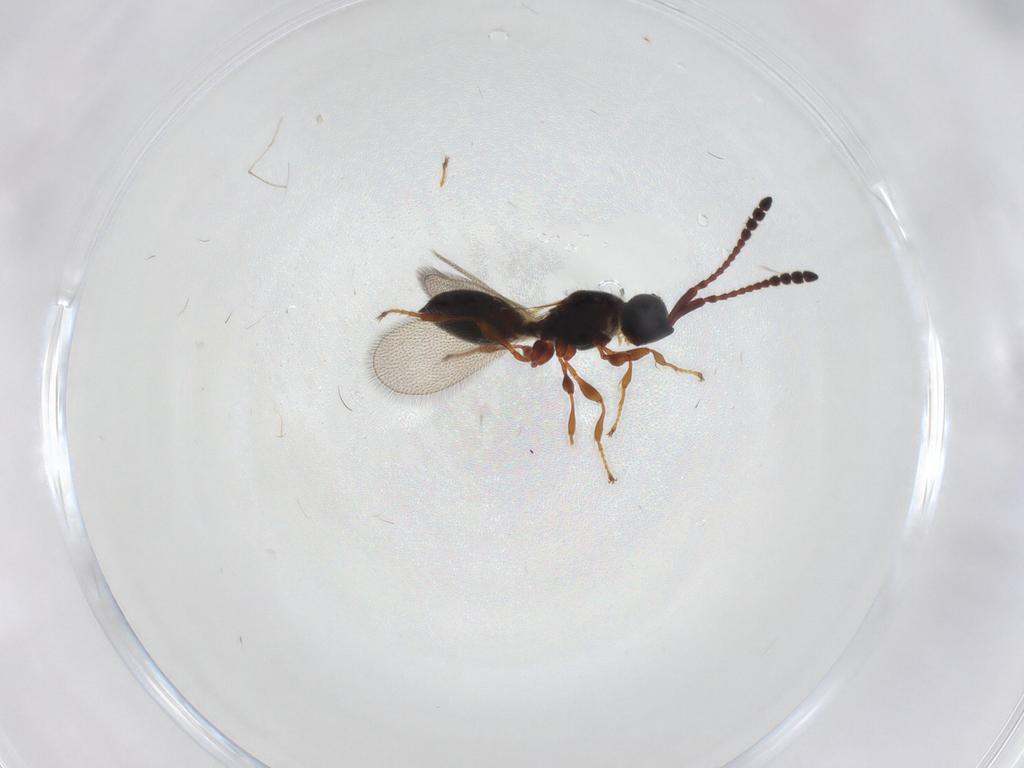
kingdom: Animalia
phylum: Arthropoda
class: Insecta
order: Hymenoptera
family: Diapriidae
